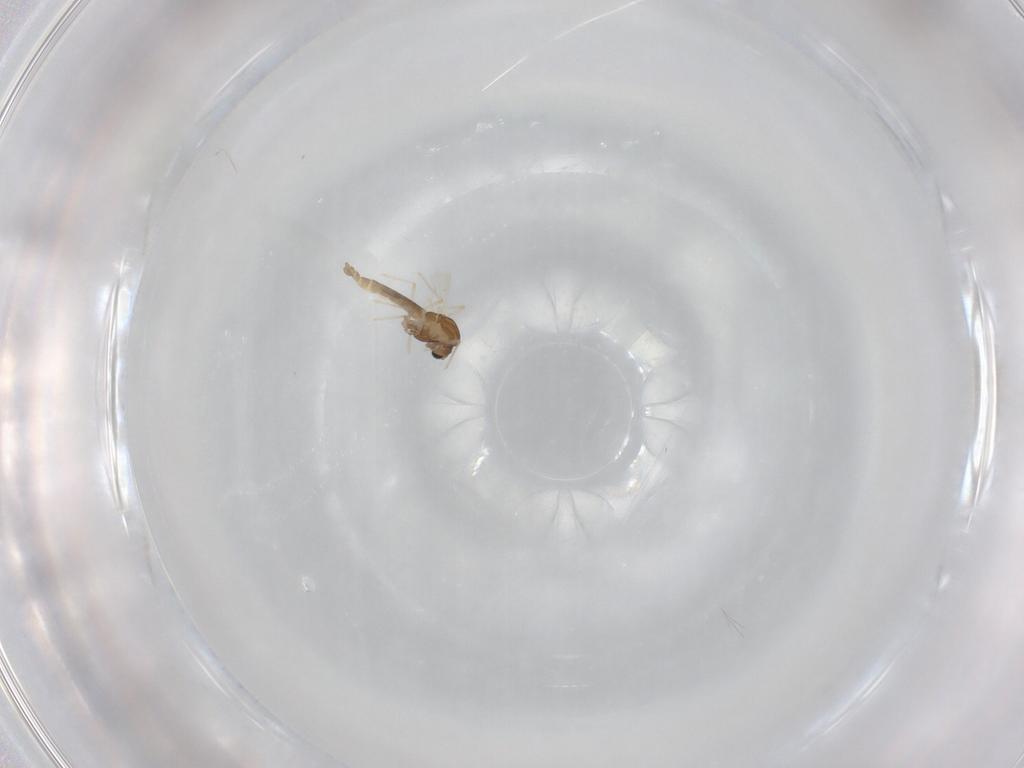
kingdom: Animalia
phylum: Arthropoda
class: Insecta
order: Diptera
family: Chironomidae
